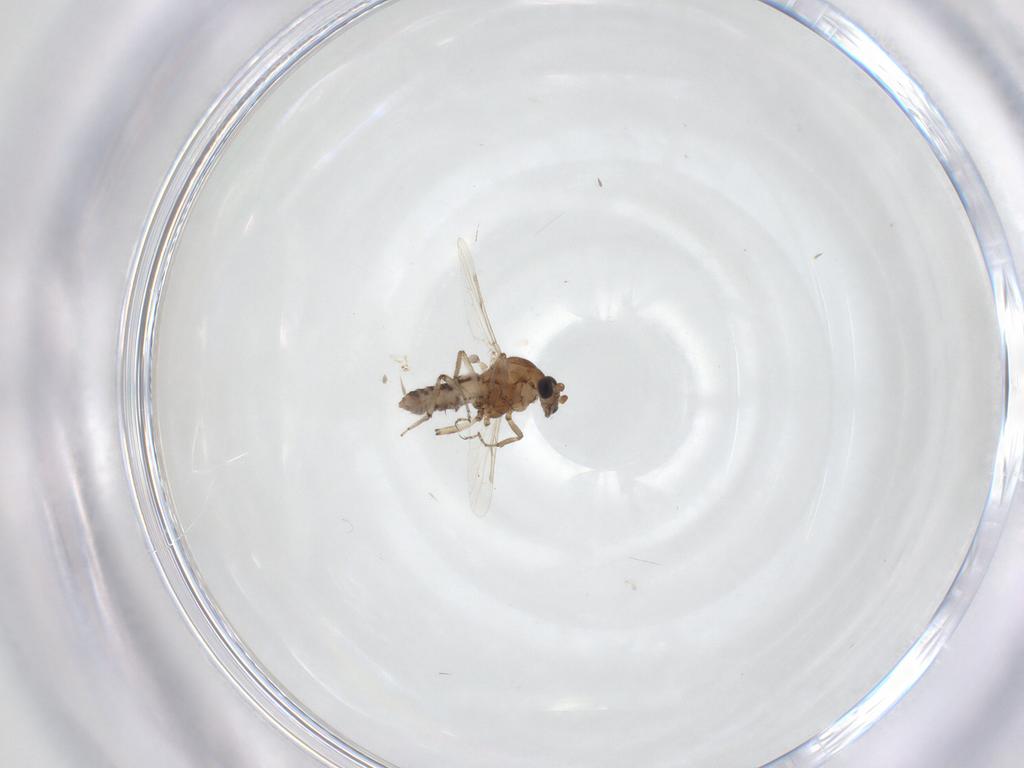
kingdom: Animalia
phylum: Arthropoda
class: Insecta
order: Diptera
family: Ceratopogonidae
